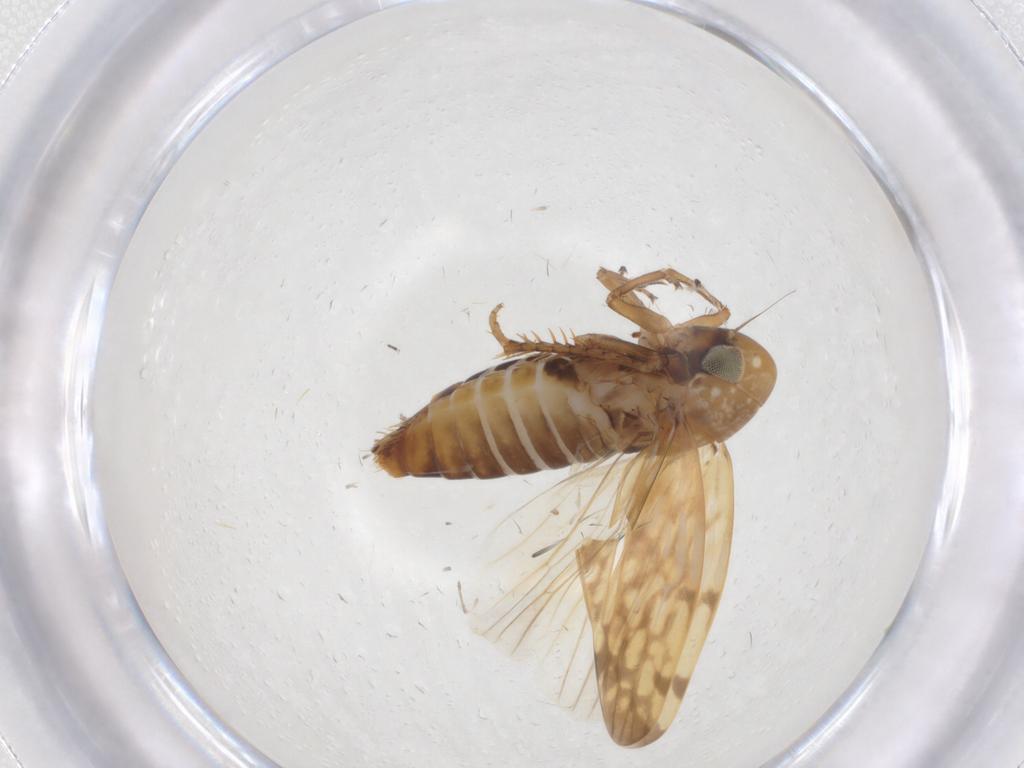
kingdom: Animalia
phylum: Arthropoda
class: Insecta
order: Hemiptera
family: Cicadellidae
